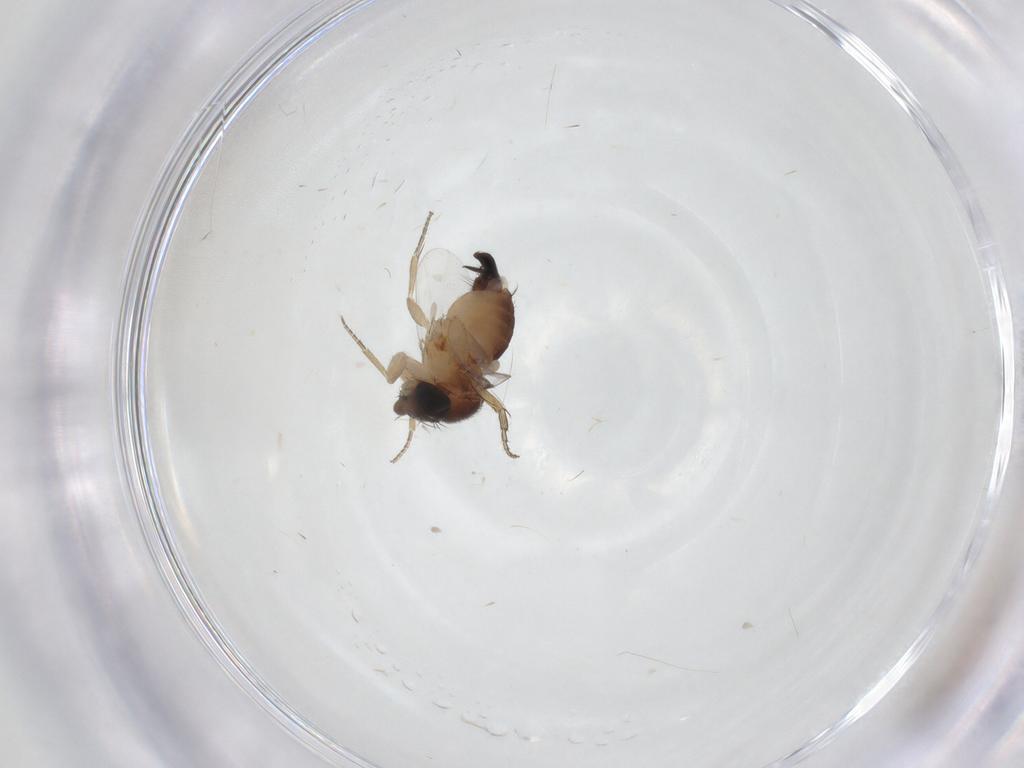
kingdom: Animalia
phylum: Arthropoda
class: Insecta
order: Diptera
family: Phoridae
